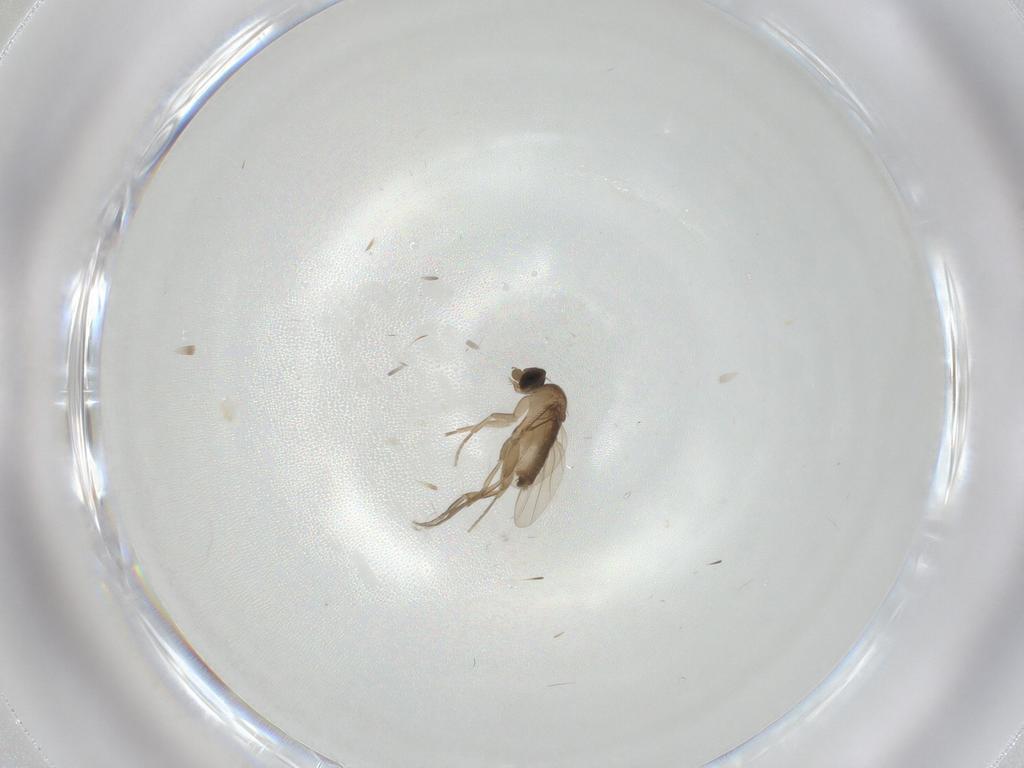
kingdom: Animalia
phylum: Arthropoda
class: Insecta
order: Diptera
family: Phoridae
